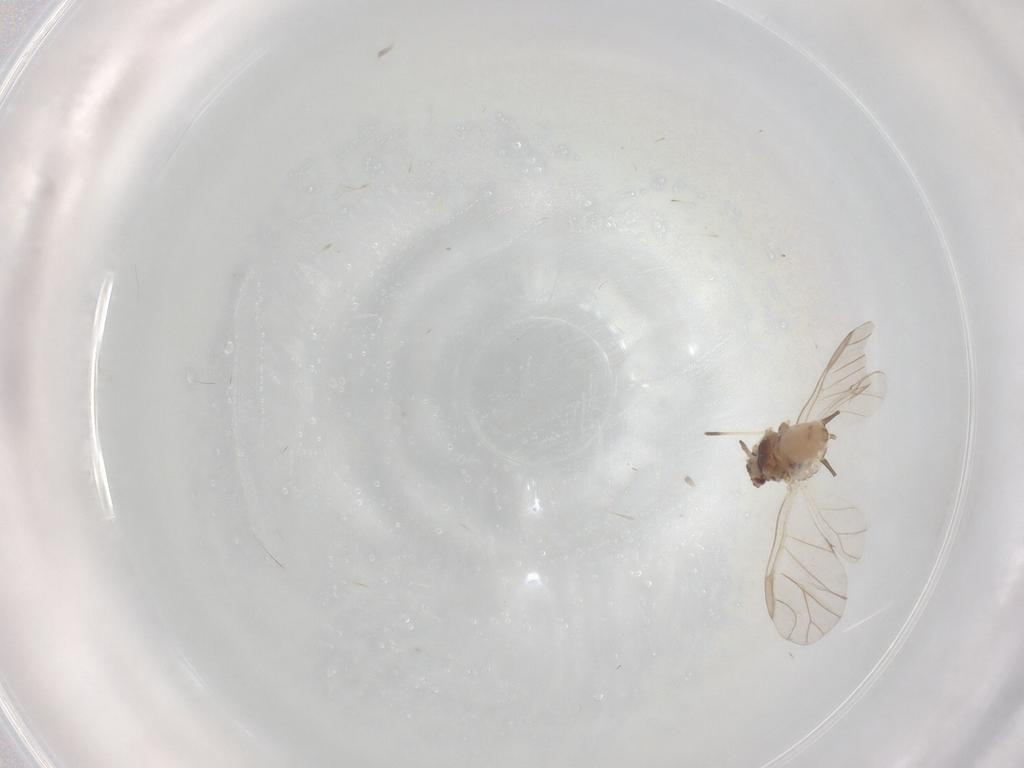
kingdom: Animalia
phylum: Arthropoda
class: Insecta
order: Hemiptera
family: Aphididae
